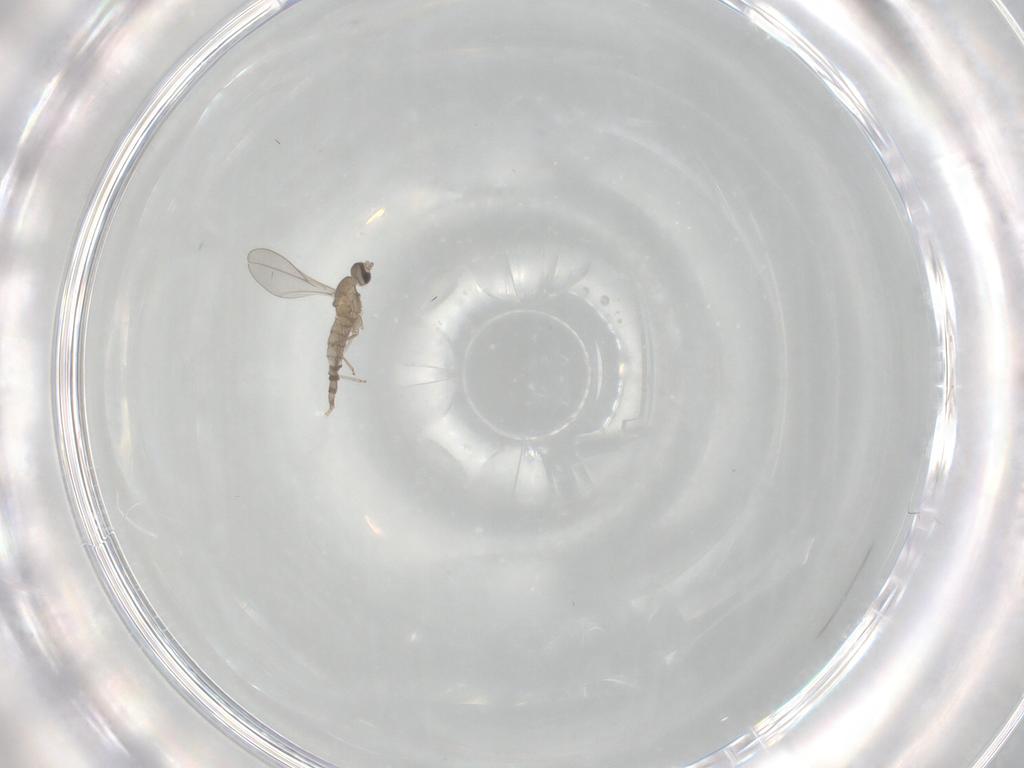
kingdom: Animalia
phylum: Arthropoda
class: Insecta
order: Diptera
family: Cecidomyiidae
